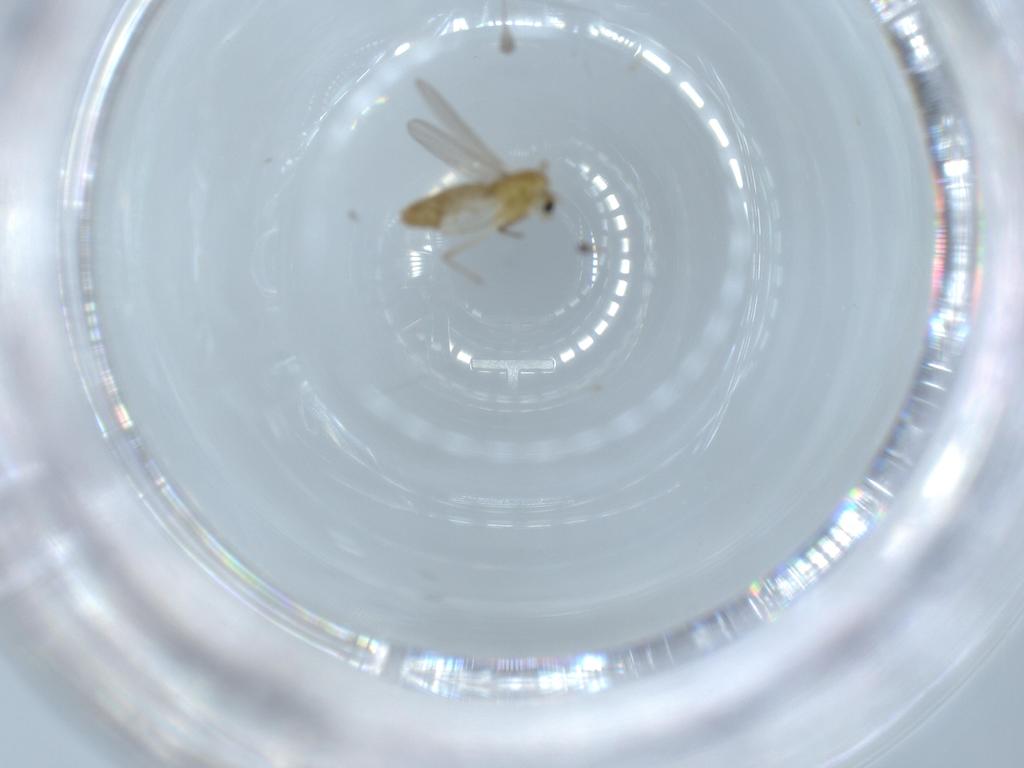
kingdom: Animalia
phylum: Arthropoda
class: Insecta
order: Diptera
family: Chironomidae
